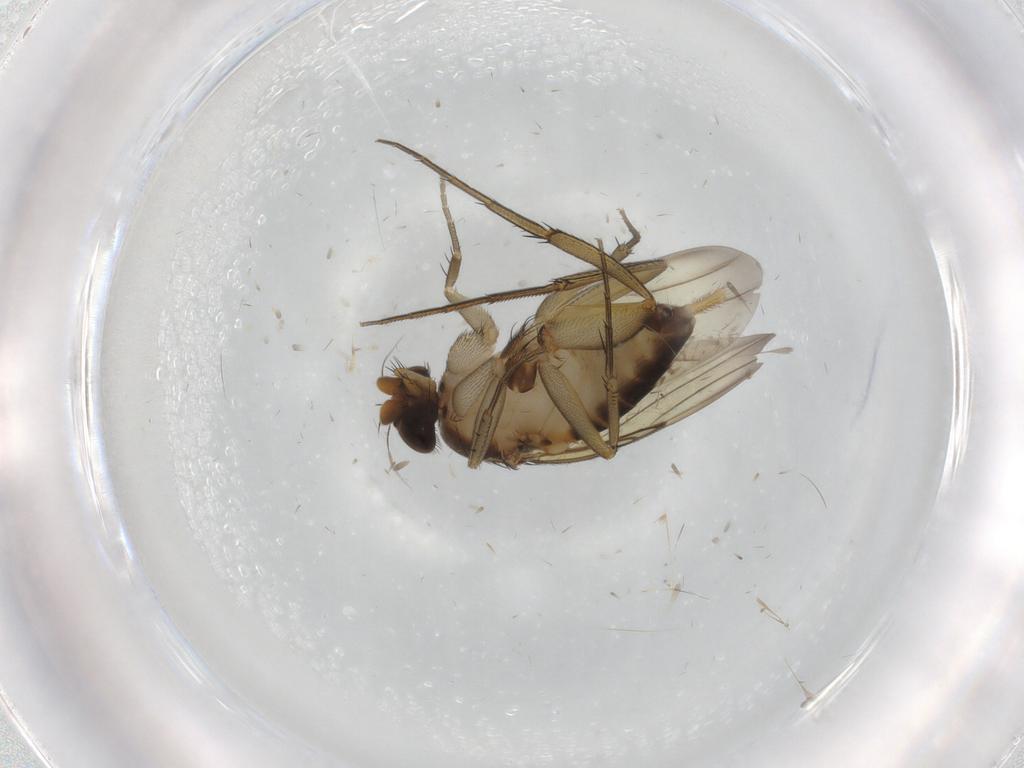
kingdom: Animalia
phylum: Arthropoda
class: Insecta
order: Diptera
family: Phoridae
